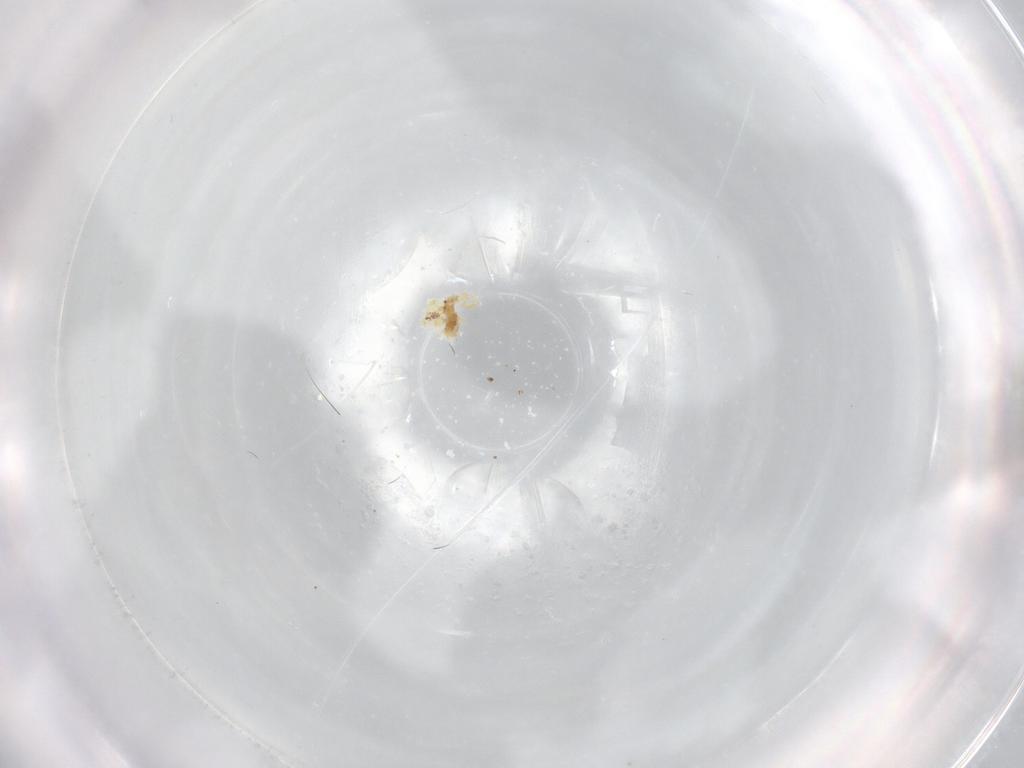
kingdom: Animalia
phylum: Arthropoda
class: Arachnida
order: Trombidiformes
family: Eupodidae
